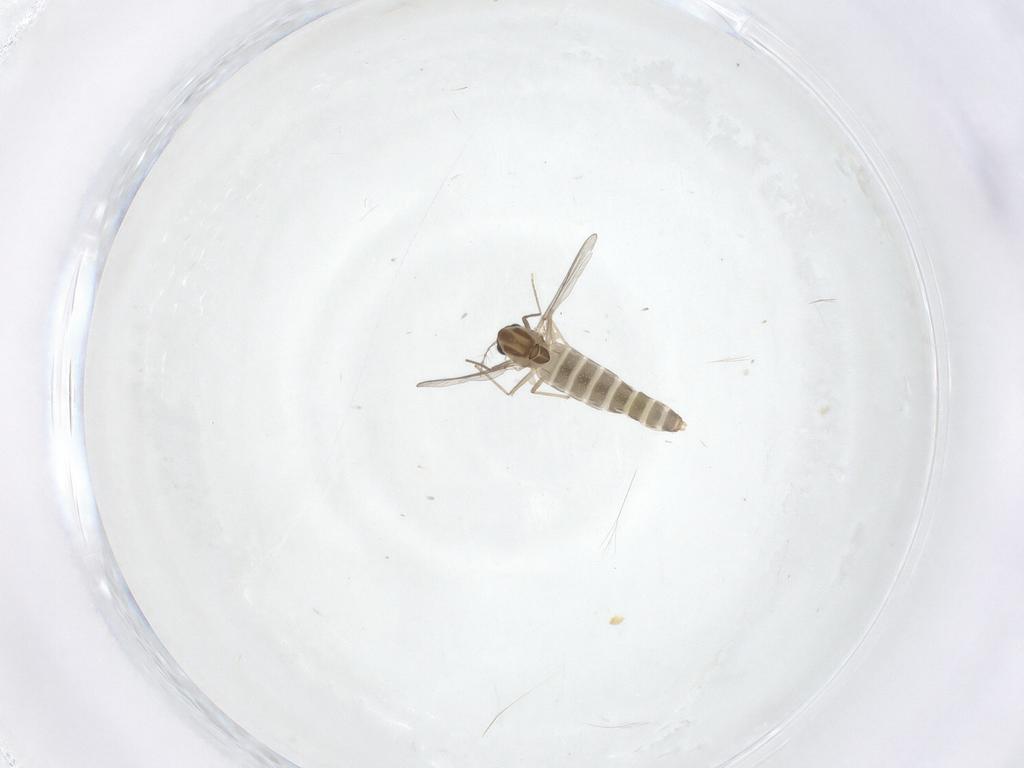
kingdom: Animalia
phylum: Arthropoda
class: Insecta
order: Diptera
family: Chironomidae
